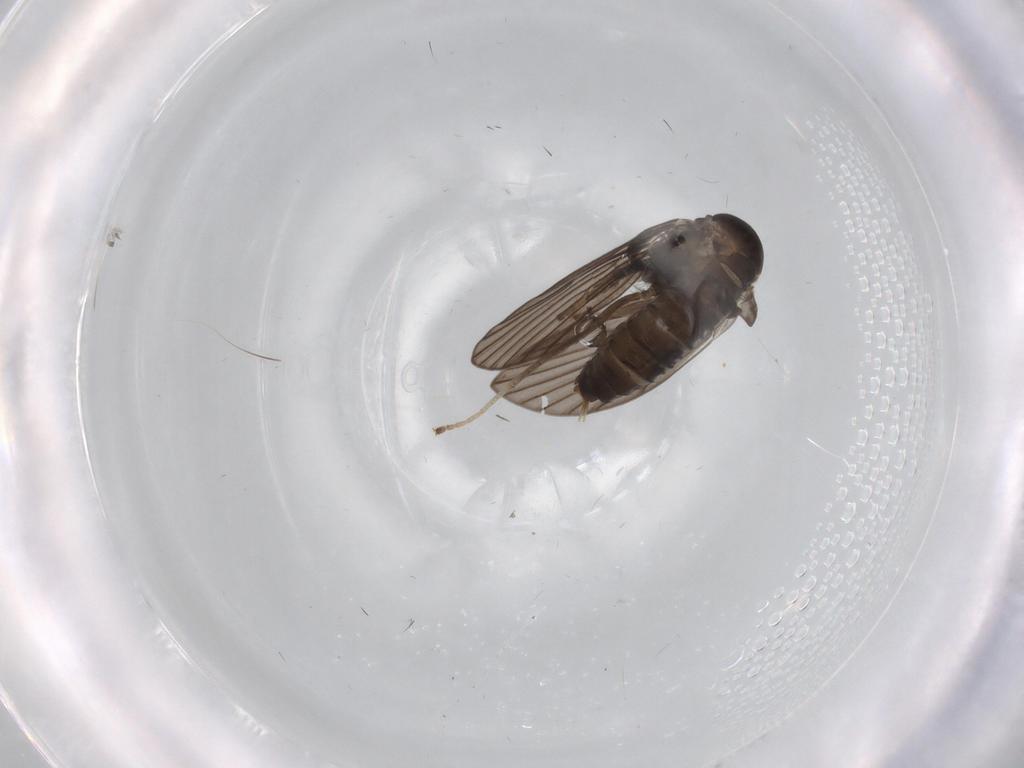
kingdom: Animalia
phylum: Arthropoda
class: Insecta
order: Diptera
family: Psychodidae
